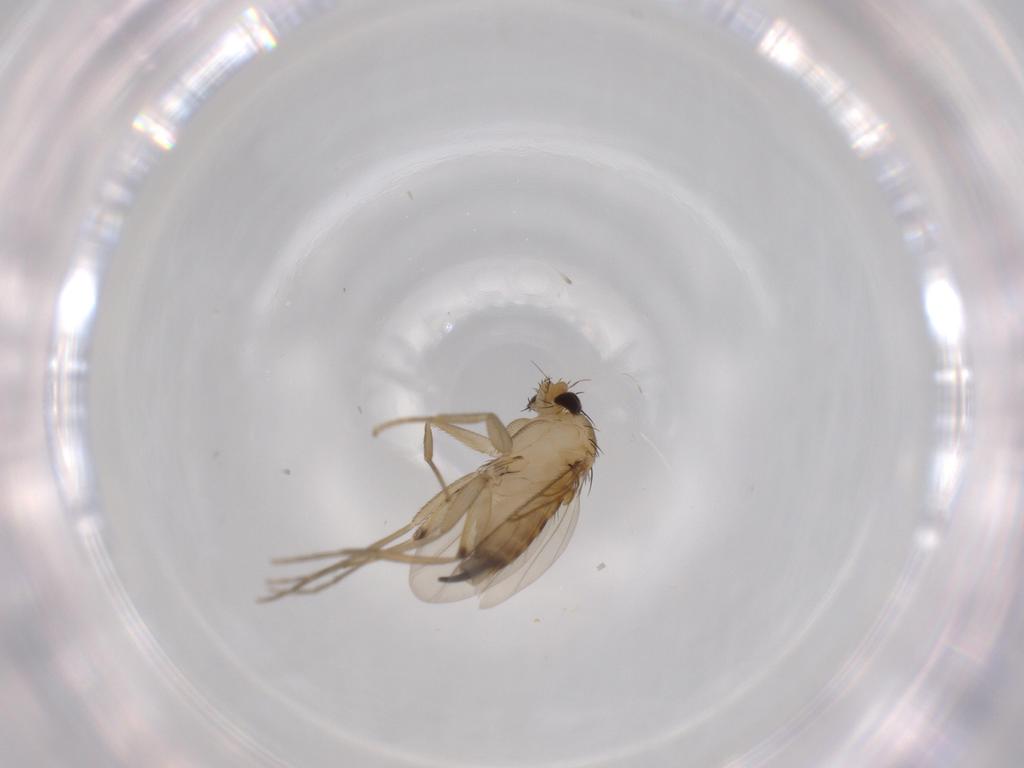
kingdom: Animalia
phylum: Arthropoda
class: Insecta
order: Diptera
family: Phoridae
